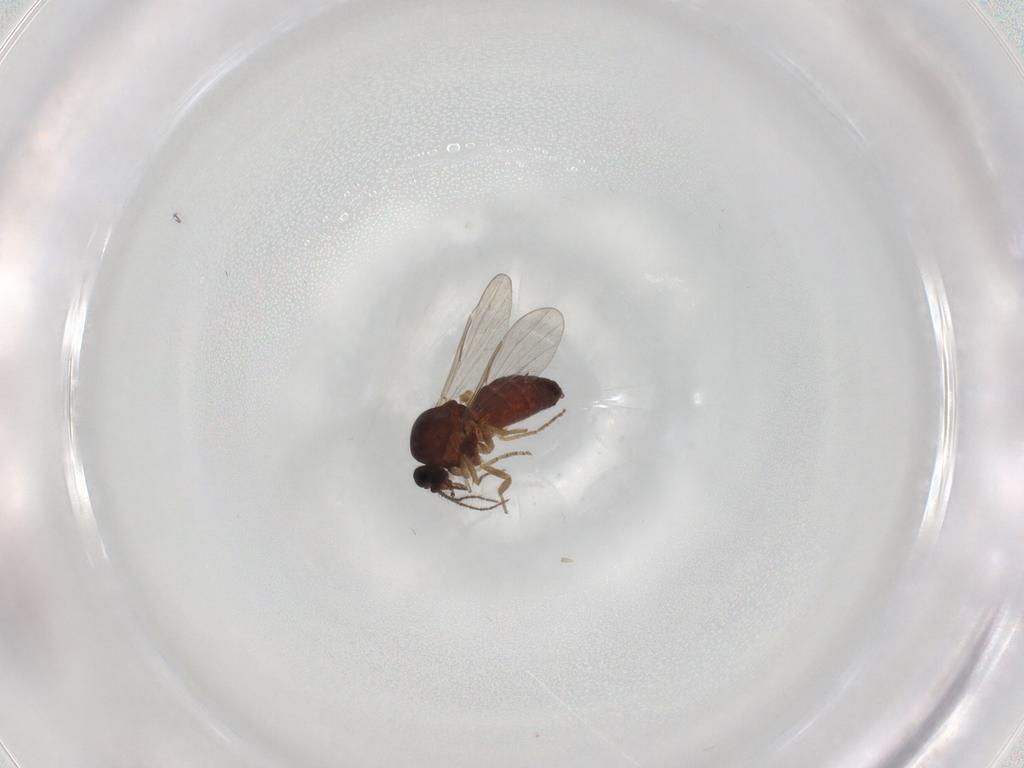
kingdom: Animalia
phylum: Arthropoda
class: Insecta
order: Diptera
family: Ceratopogonidae
